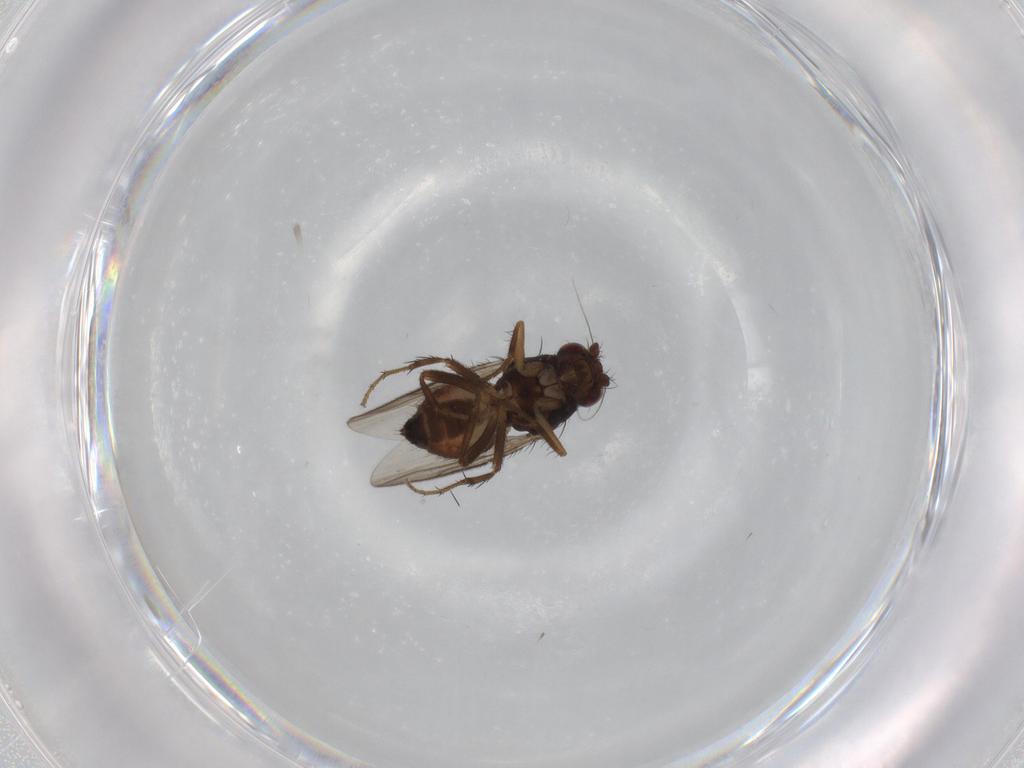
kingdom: Animalia
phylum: Arthropoda
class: Insecta
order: Diptera
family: Sphaeroceridae
